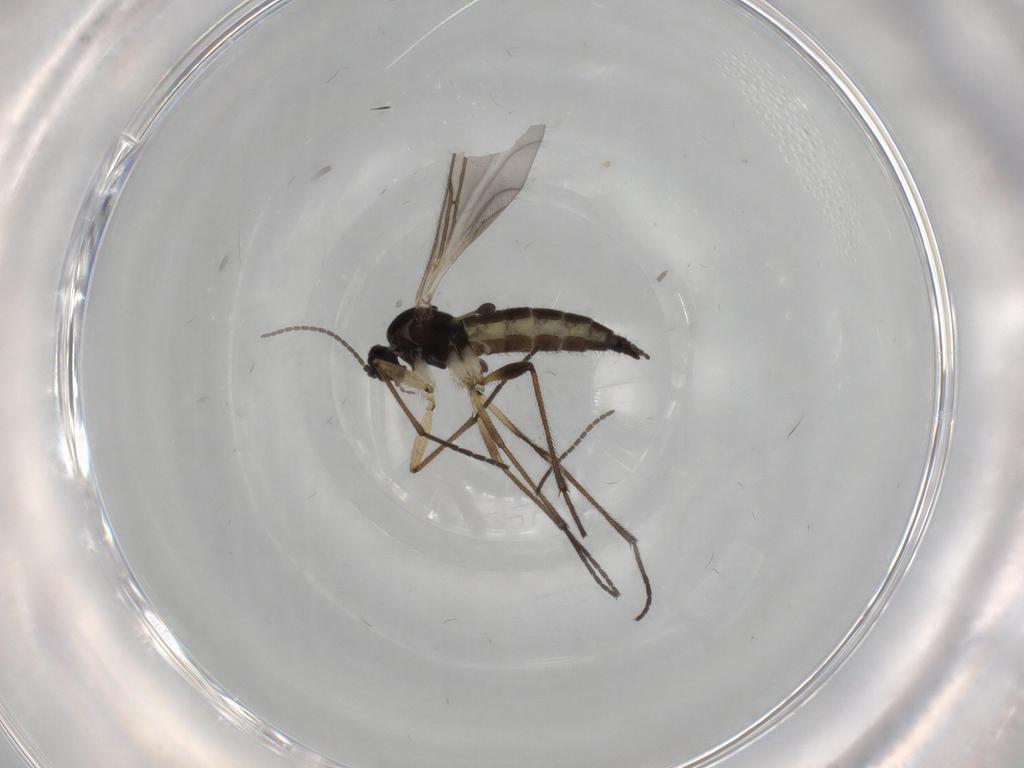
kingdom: Animalia
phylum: Arthropoda
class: Insecta
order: Diptera
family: Sciaridae
